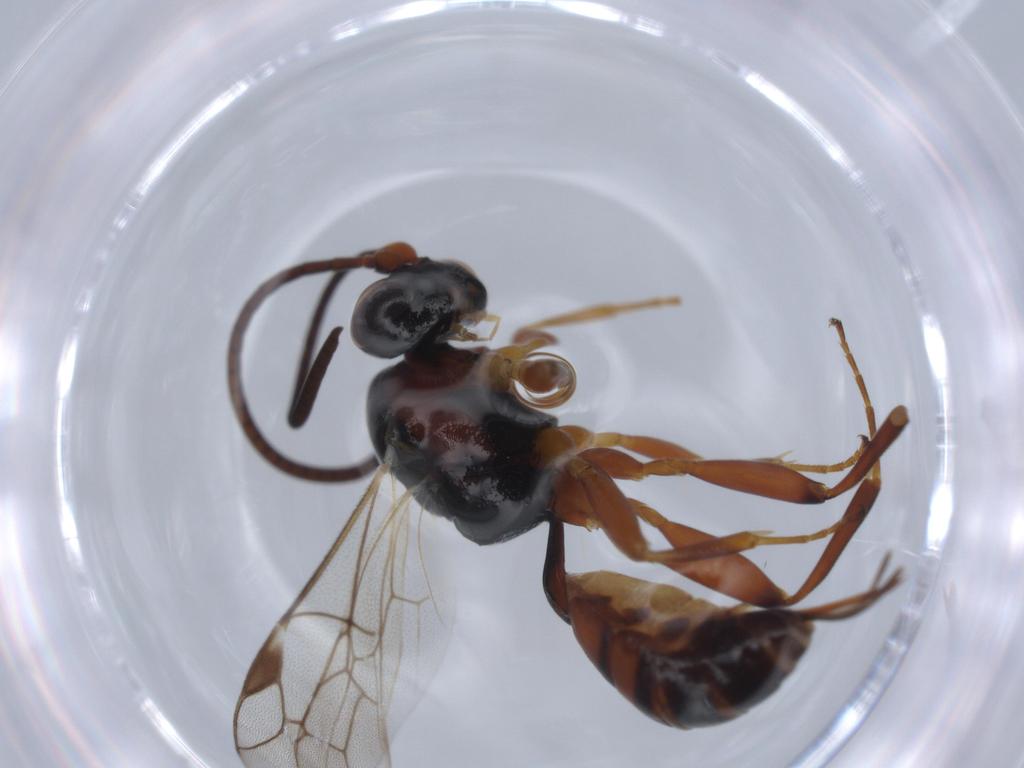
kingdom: Animalia
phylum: Arthropoda
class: Insecta
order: Hymenoptera
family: Ichneumonidae
